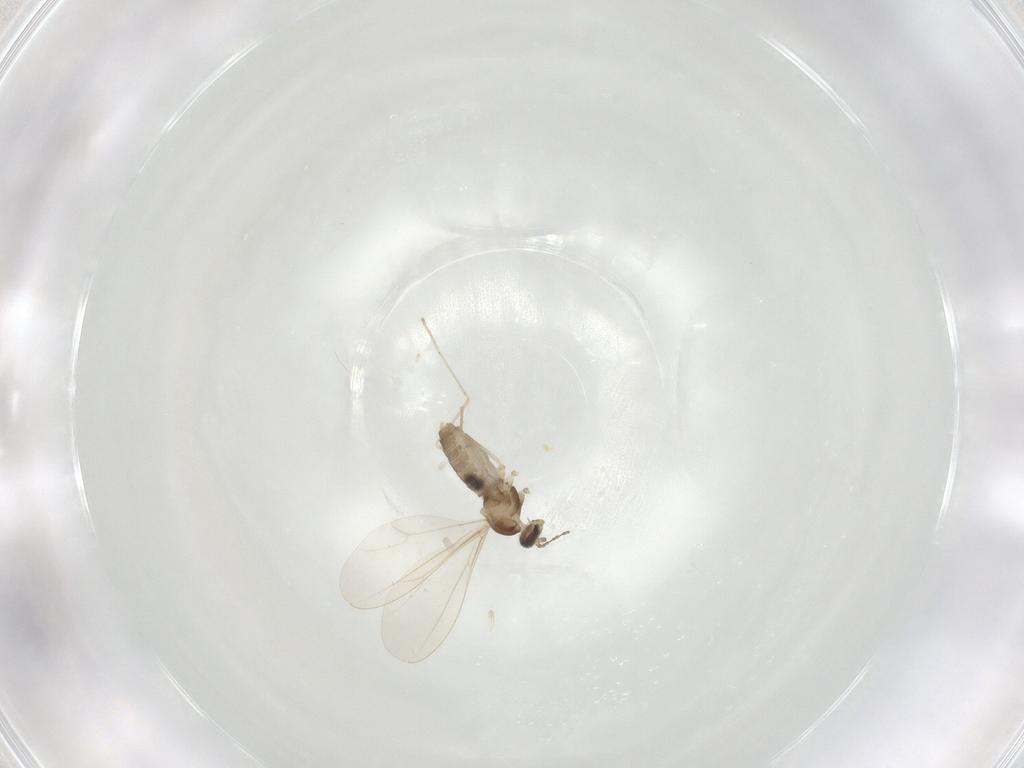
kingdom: Animalia
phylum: Arthropoda
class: Insecta
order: Diptera
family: Cecidomyiidae
